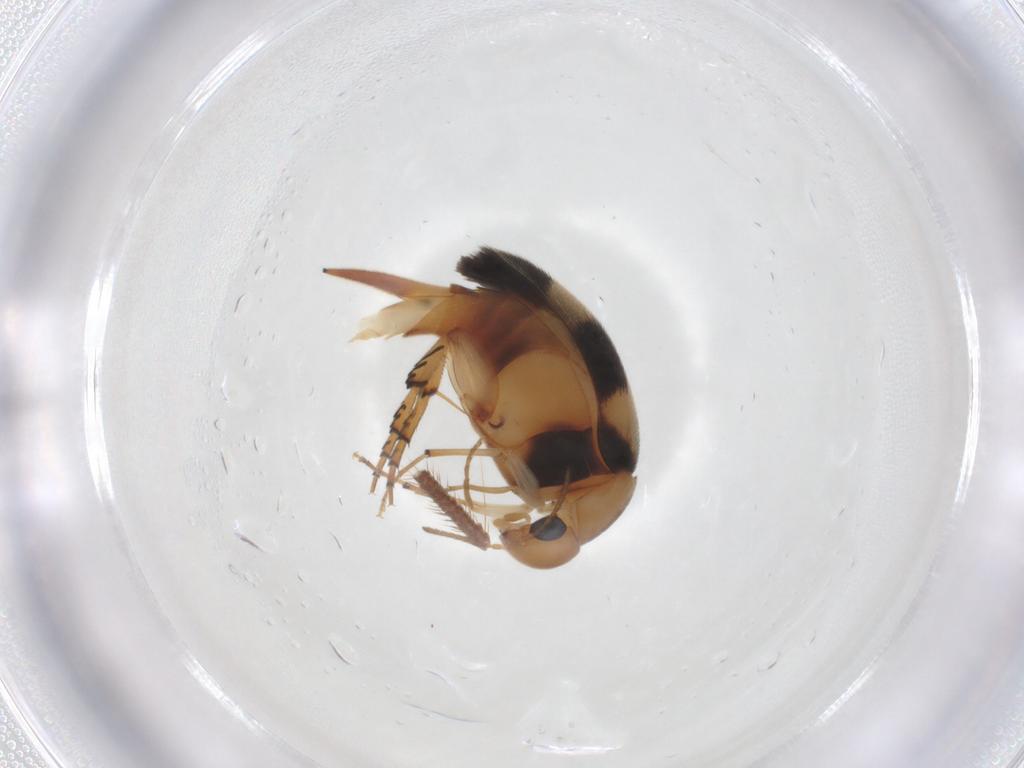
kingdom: Animalia
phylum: Arthropoda
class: Insecta
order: Coleoptera
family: Mordellidae
